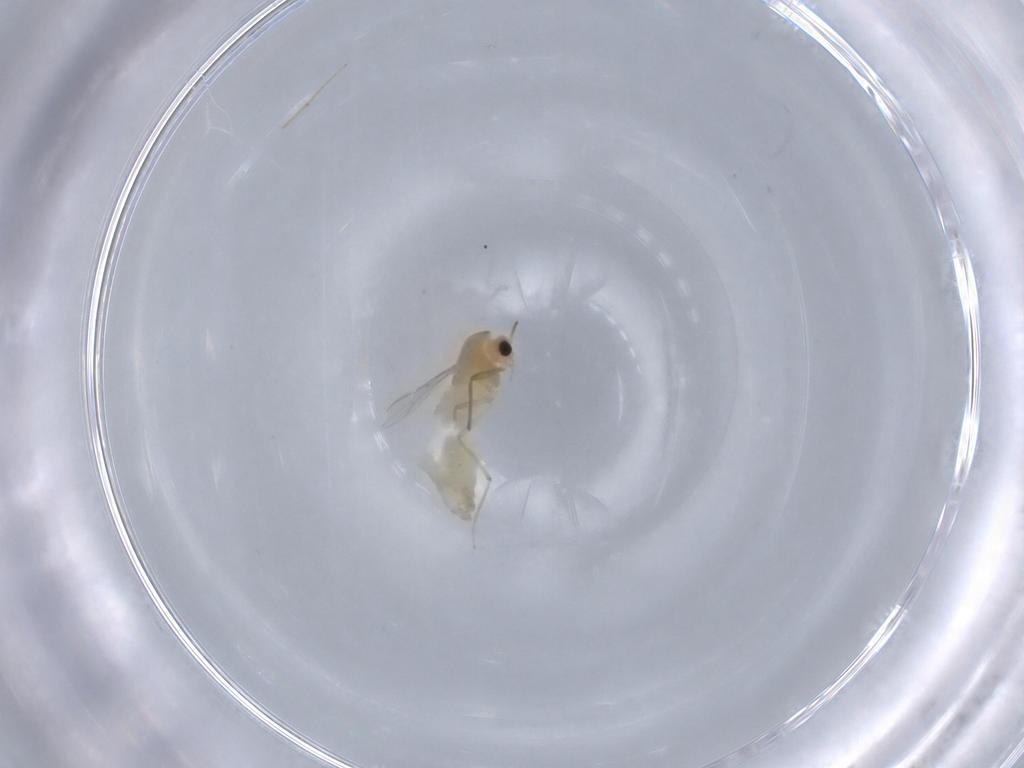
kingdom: Animalia
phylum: Arthropoda
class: Insecta
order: Diptera
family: Chironomidae
